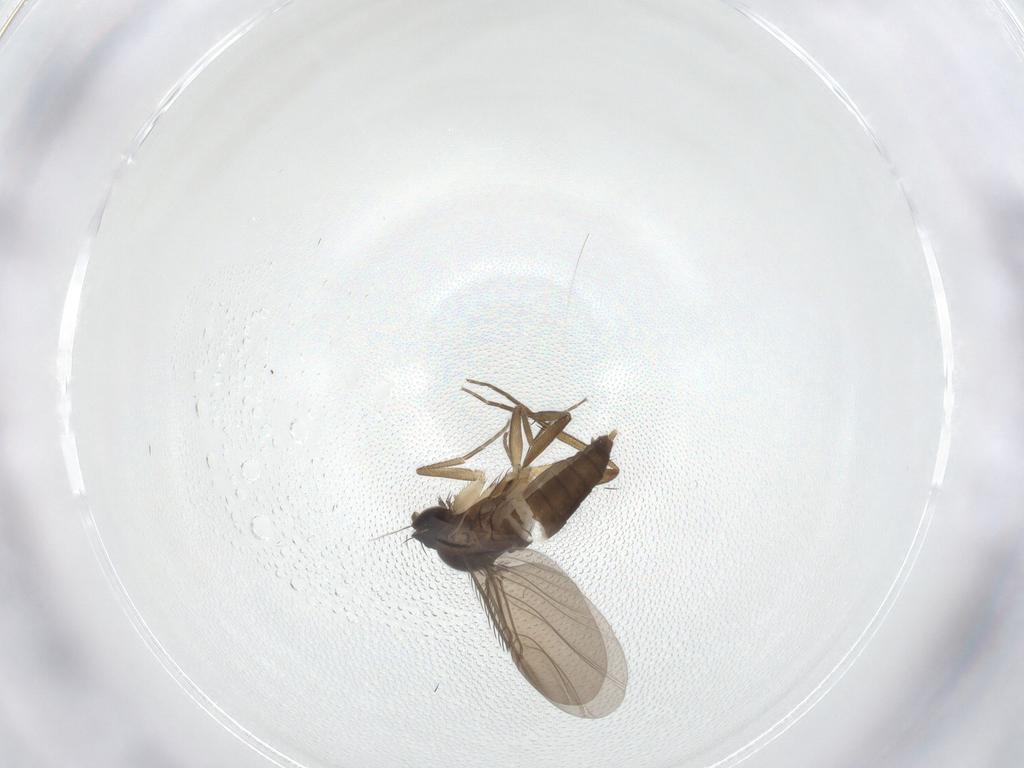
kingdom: Animalia
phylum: Arthropoda
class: Insecta
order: Diptera
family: Phoridae
